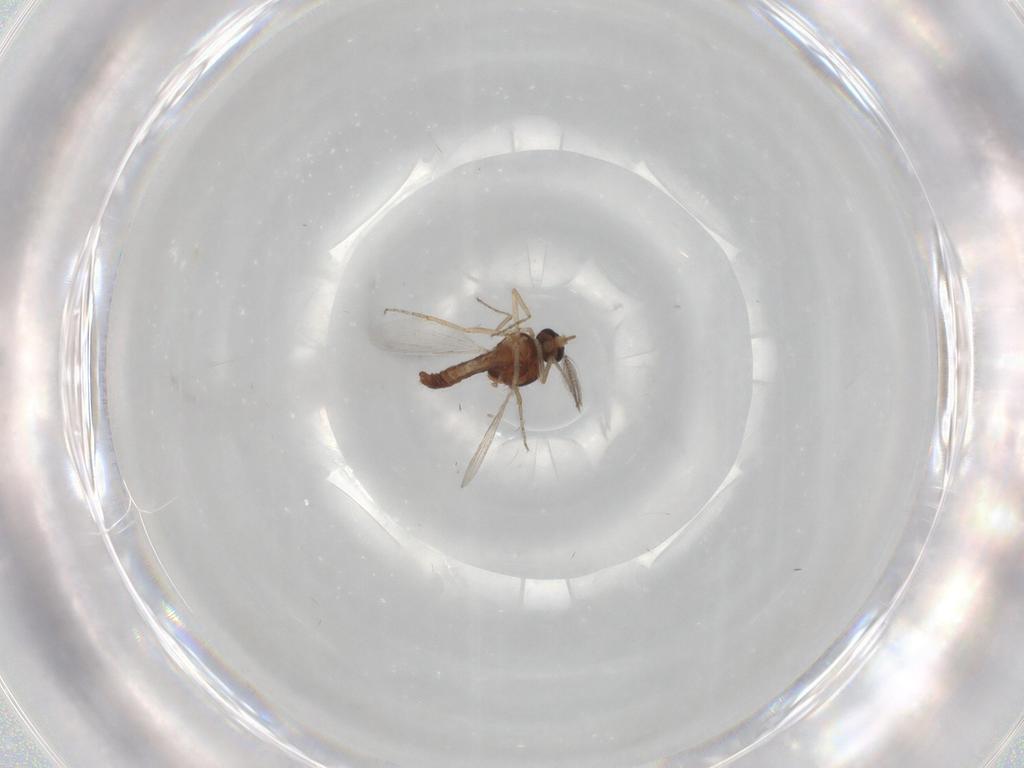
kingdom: Animalia
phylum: Arthropoda
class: Insecta
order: Diptera
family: Ceratopogonidae
